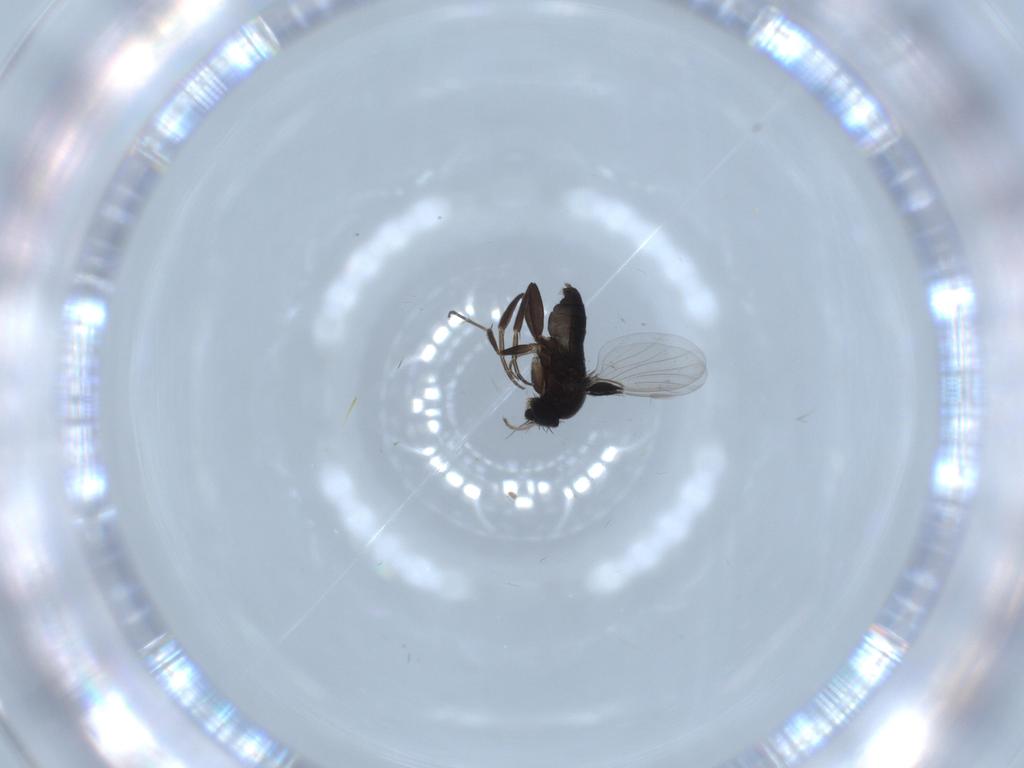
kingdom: Animalia
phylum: Arthropoda
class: Insecta
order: Diptera
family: Phoridae
